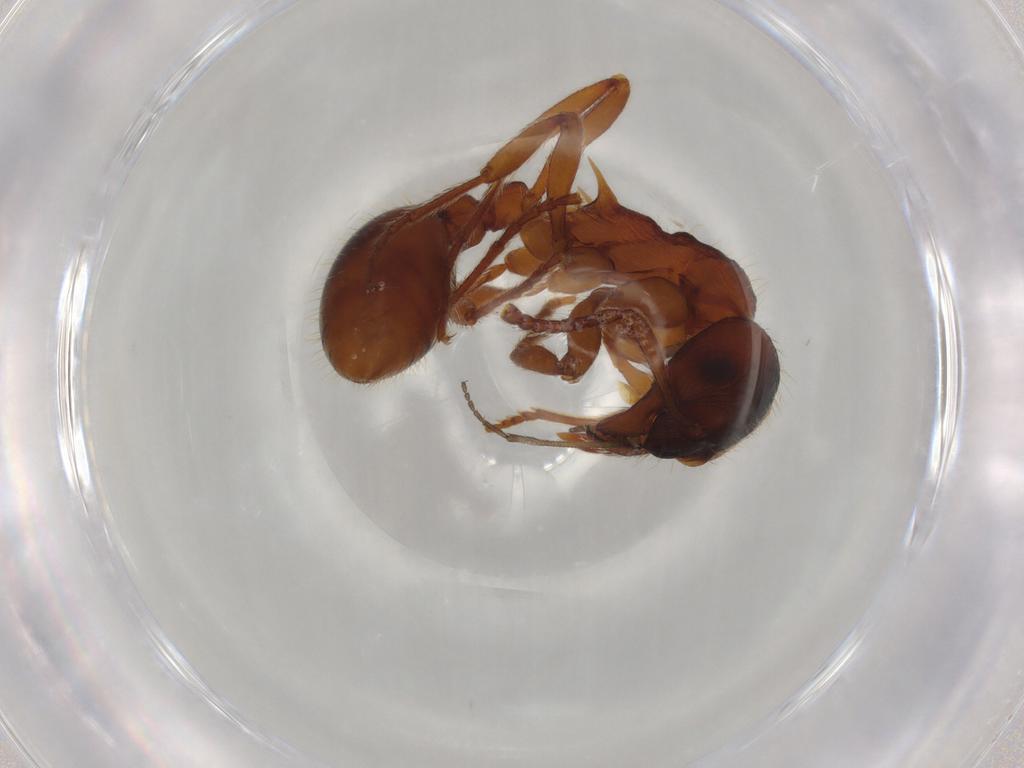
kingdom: Animalia
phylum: Arthropoda
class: Insecta
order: Hymenoptera
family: Formicidae
